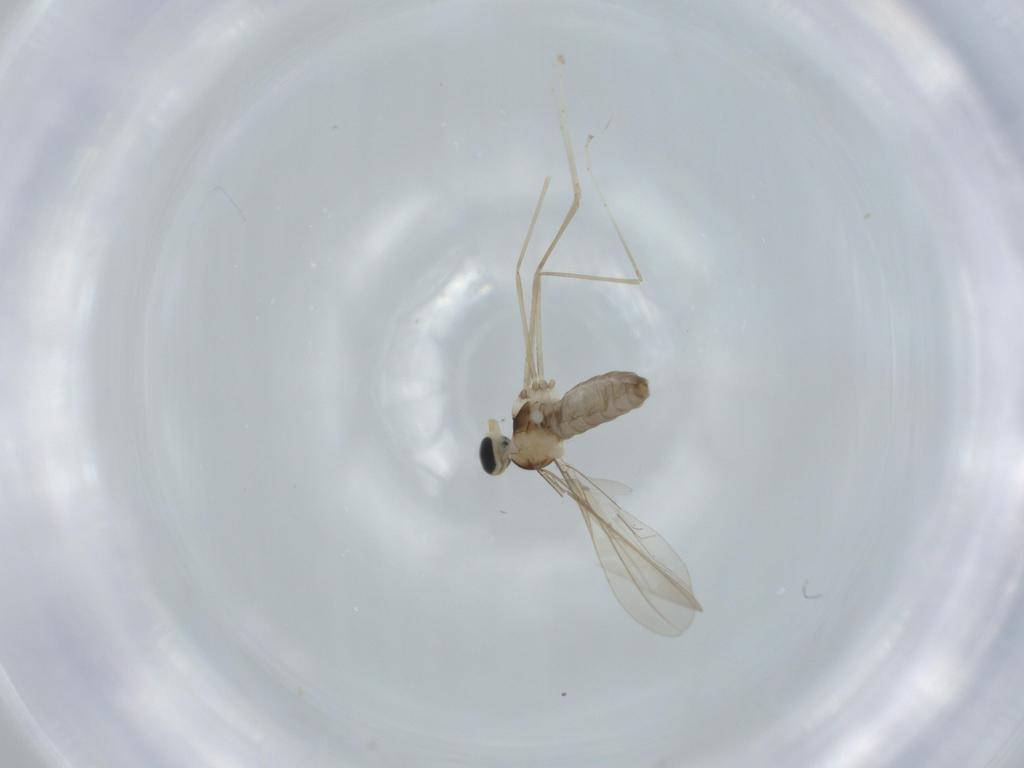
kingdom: Animalia
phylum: Arthropoda
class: Insecta
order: Diptera
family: Cecidomyiidae
